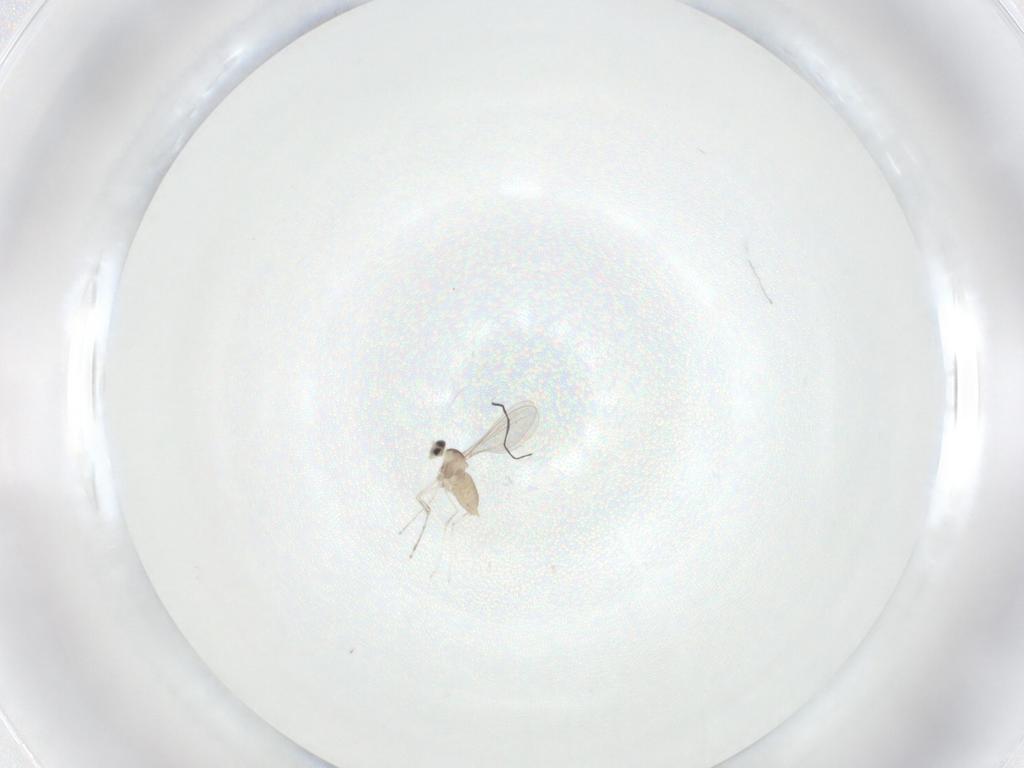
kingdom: Animalia
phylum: Arthropoda
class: Insecta
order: Diptera
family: Cecidomyiidae
